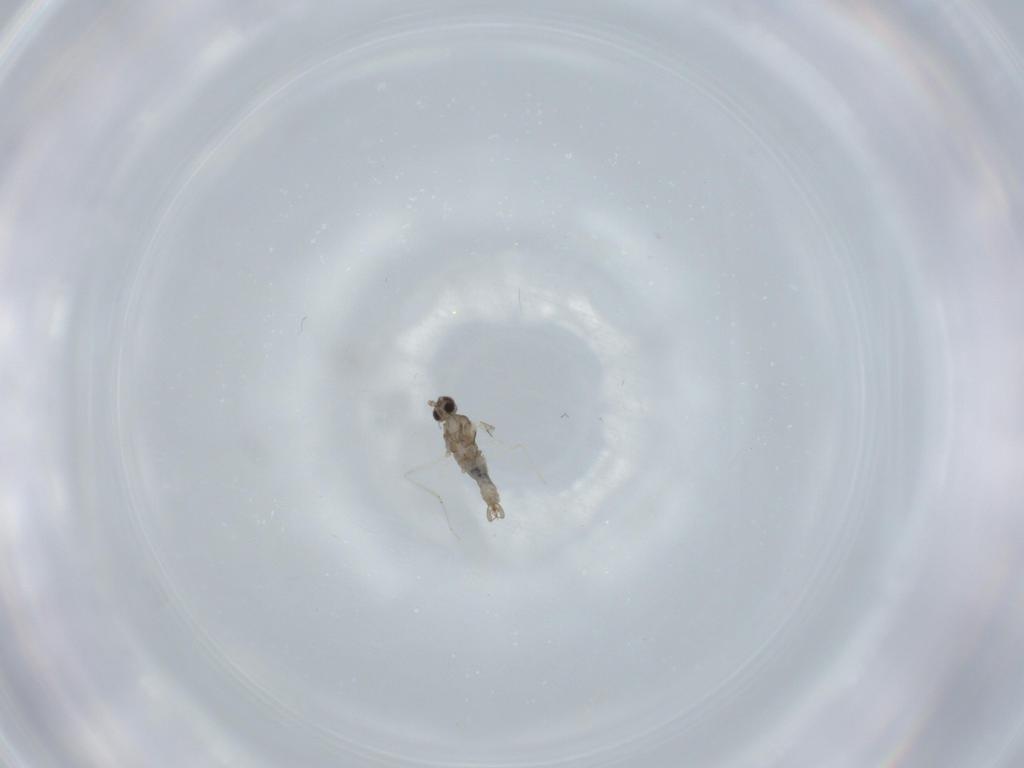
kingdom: Animalia
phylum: Arthropoda
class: Insecta
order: Diptera
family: Cecidomyiidae
